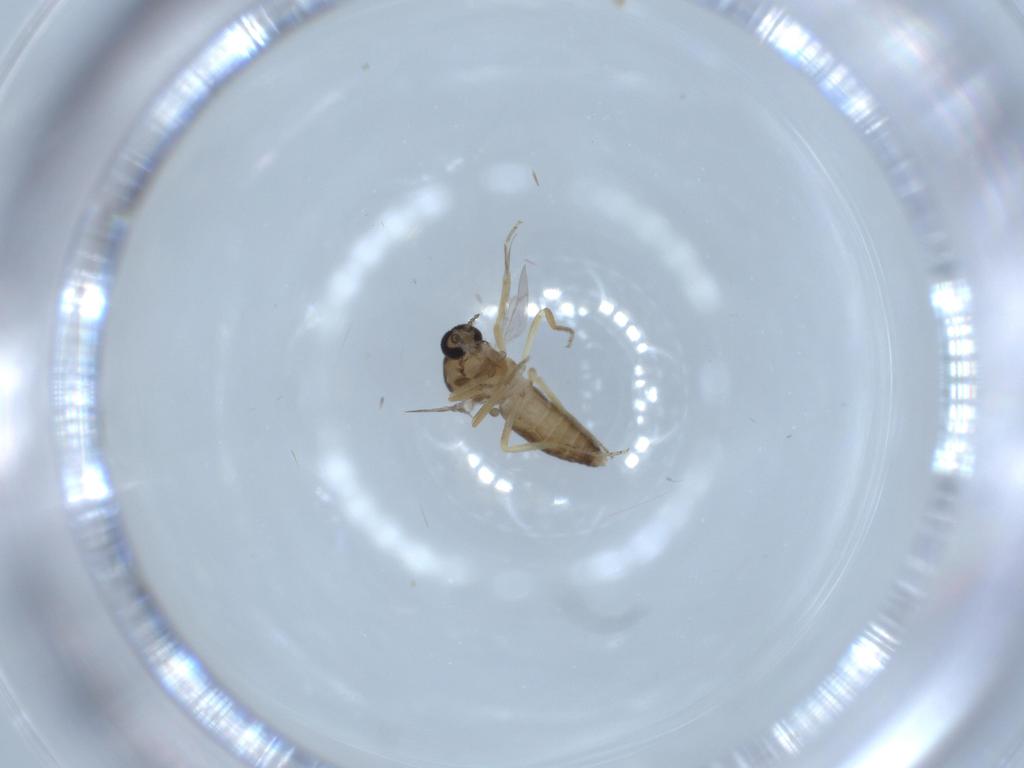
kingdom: Animalia
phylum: Arthropoda
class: Insecta
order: Diptera
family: Ceratopogonidae
